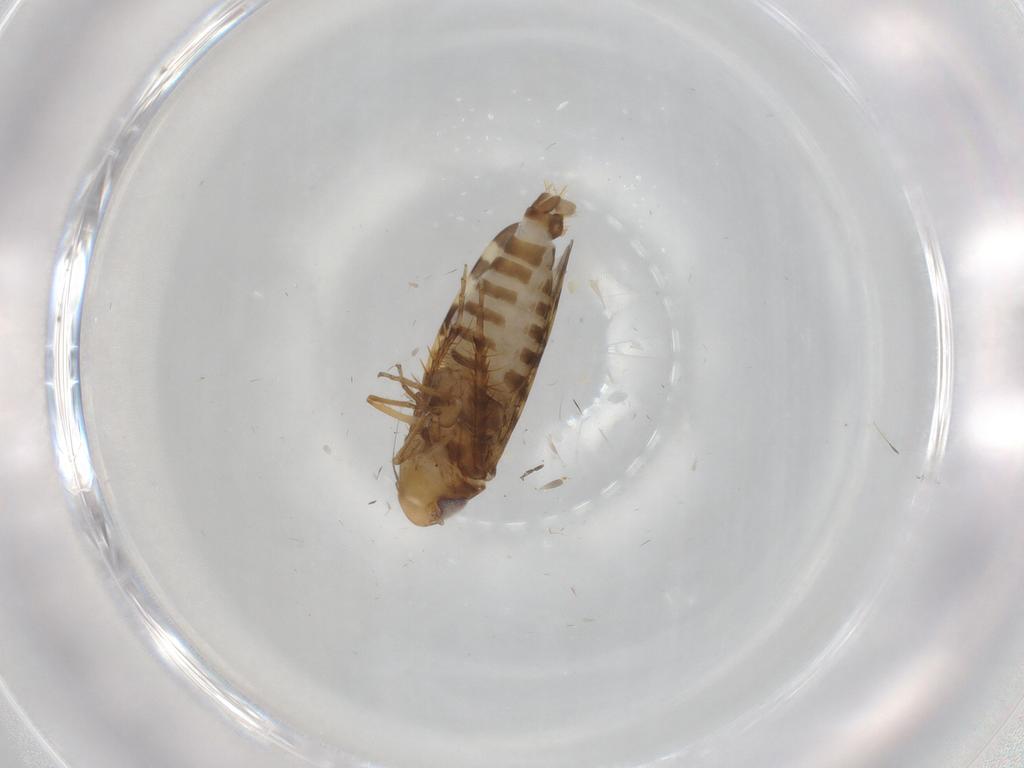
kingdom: Animalia
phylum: Arthropoda
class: Insecta
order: Hemiptera
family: Cicadellidae
